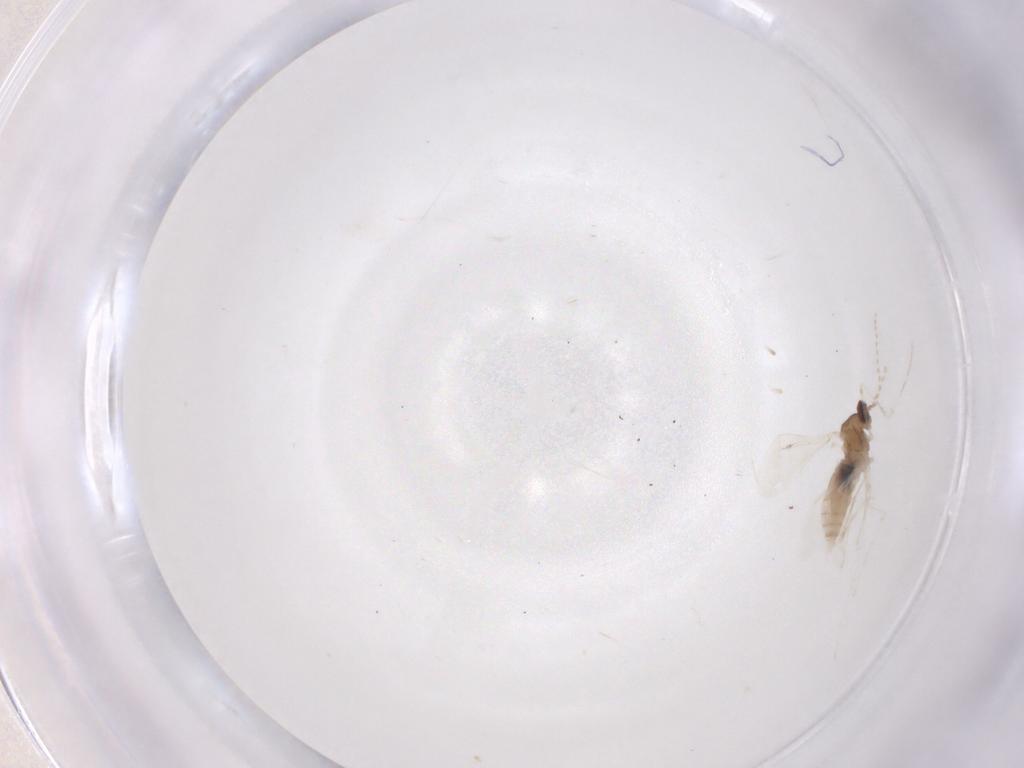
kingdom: Animalia
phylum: Arthropoda
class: Insecta
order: Diptera
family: Cecidomyiidae
